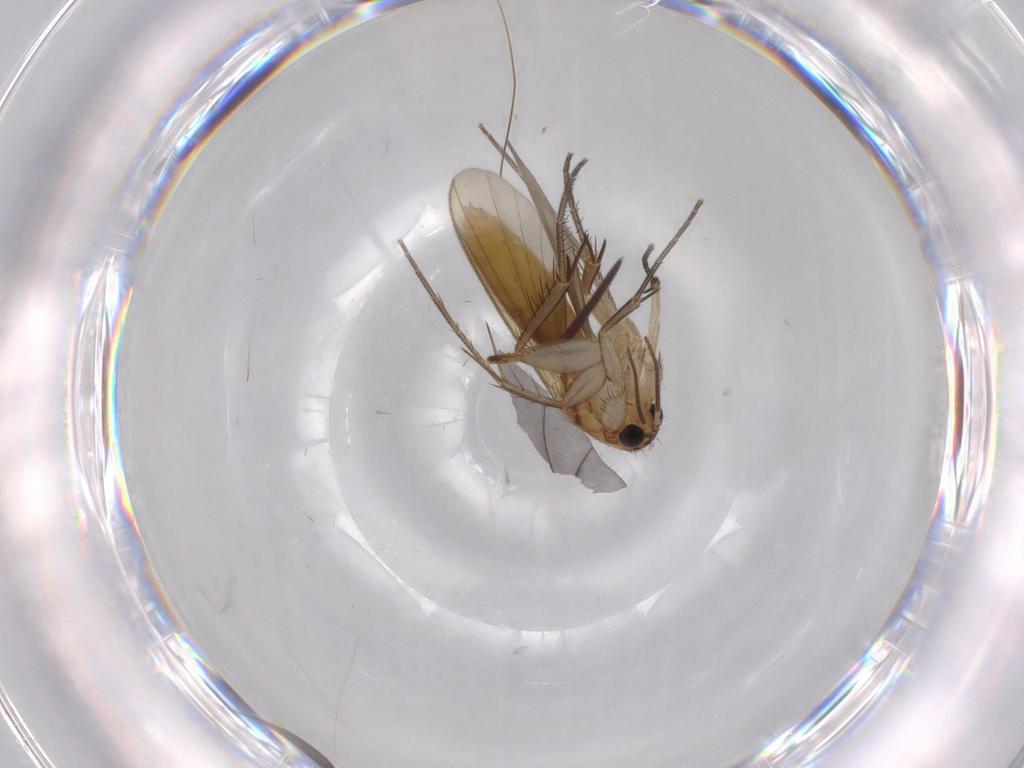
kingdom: Animalia
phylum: Arthropoda
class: Insecta
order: Diptera
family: Mycetophilidae
